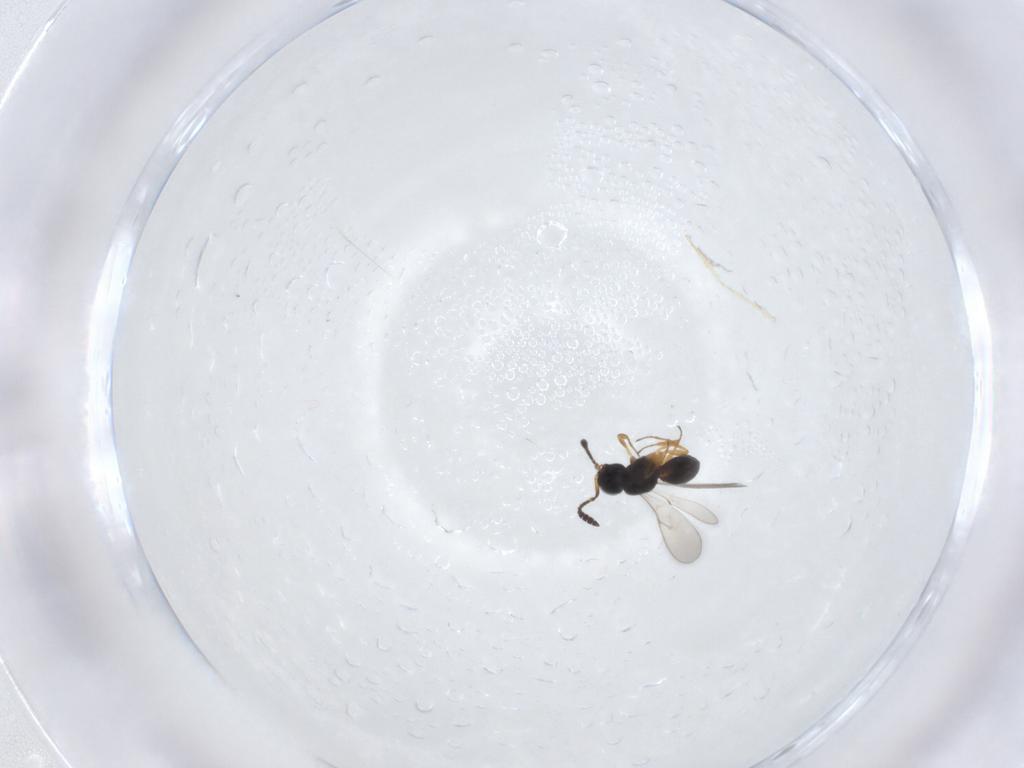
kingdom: Animalia
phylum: Arthropoda
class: Insecta
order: Hymenoptera
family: Scelionidae
